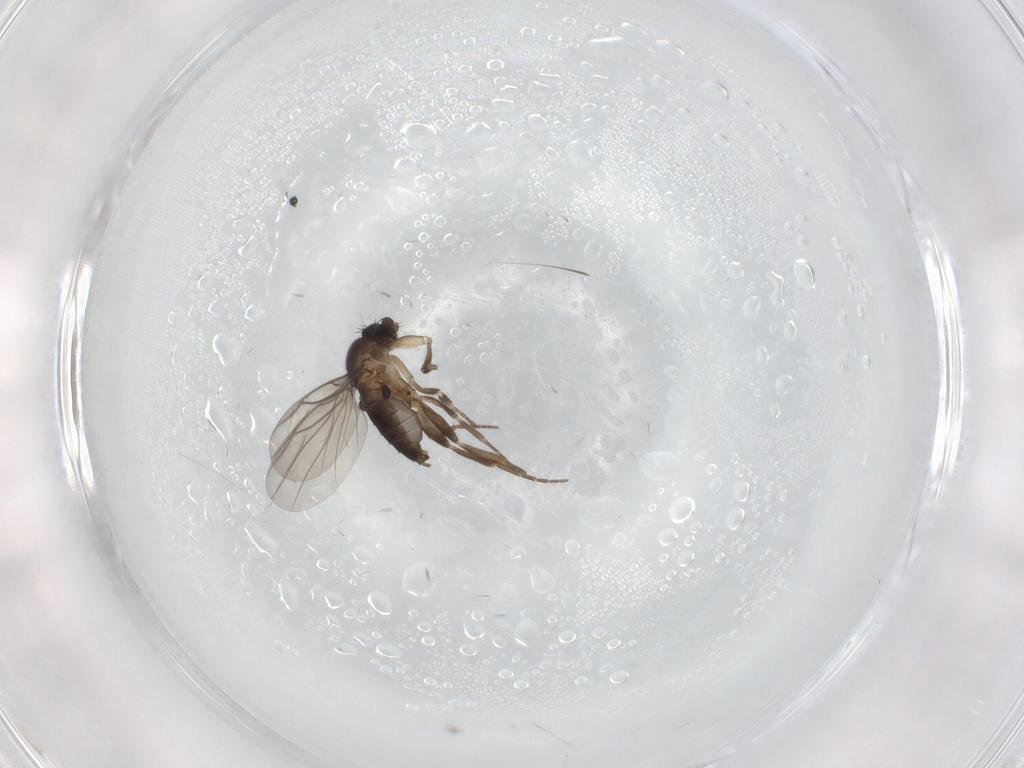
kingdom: Animalia
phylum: Arthropoda
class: Insecta
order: Diptera
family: Phoridae
